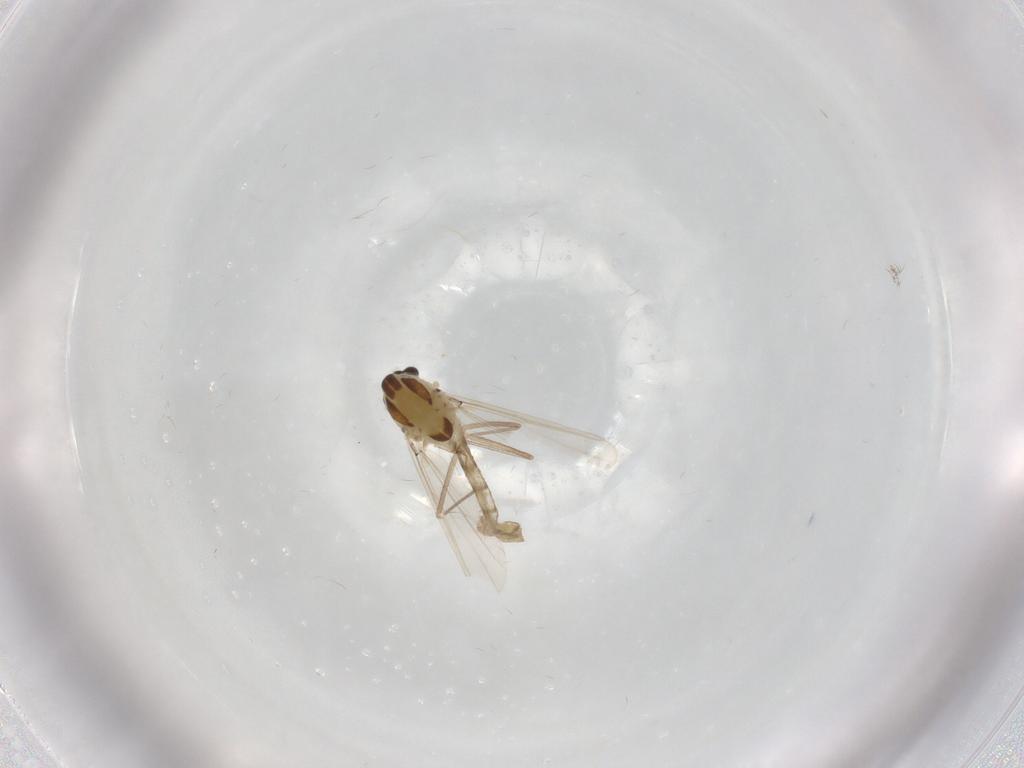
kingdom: Animalia
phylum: Arthropoda
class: Insecta
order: Diptera
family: Chironomidae
